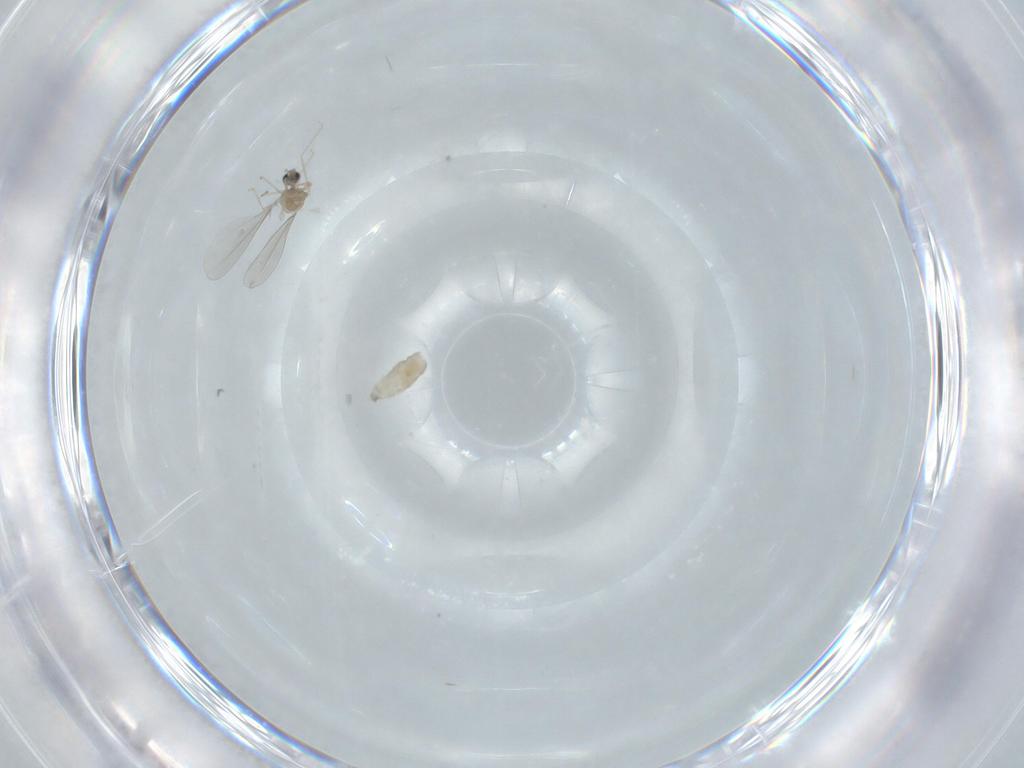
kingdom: Animalia
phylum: Arthropoda
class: Insecta
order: Diptera
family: Cecidomyiidae
